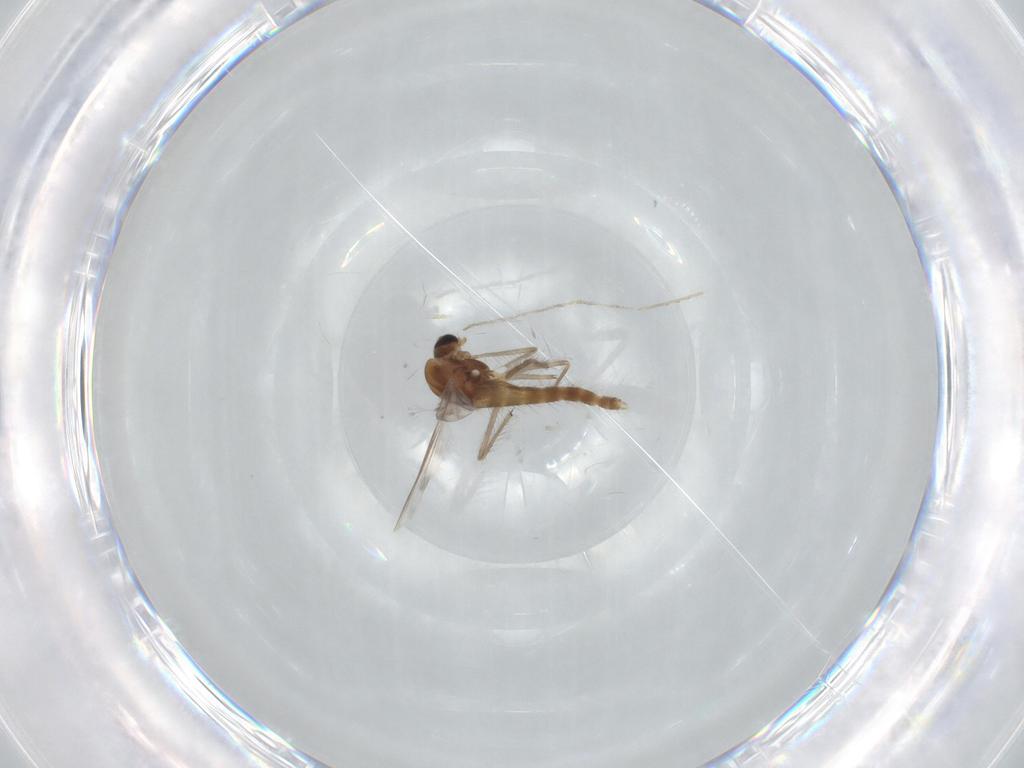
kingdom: Animalia
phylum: Arthropoda
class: Insecta
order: Diptera
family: Chironomidae
